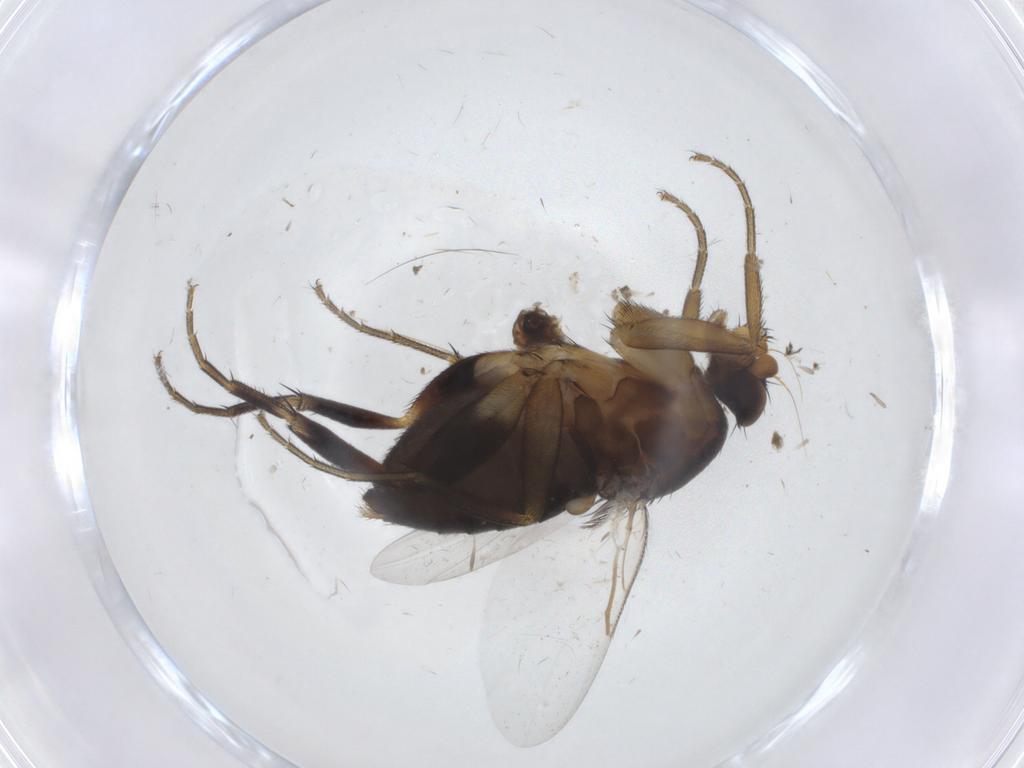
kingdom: Animalia
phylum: Arthropoda
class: Insecta
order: Diptera
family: Phoridae
